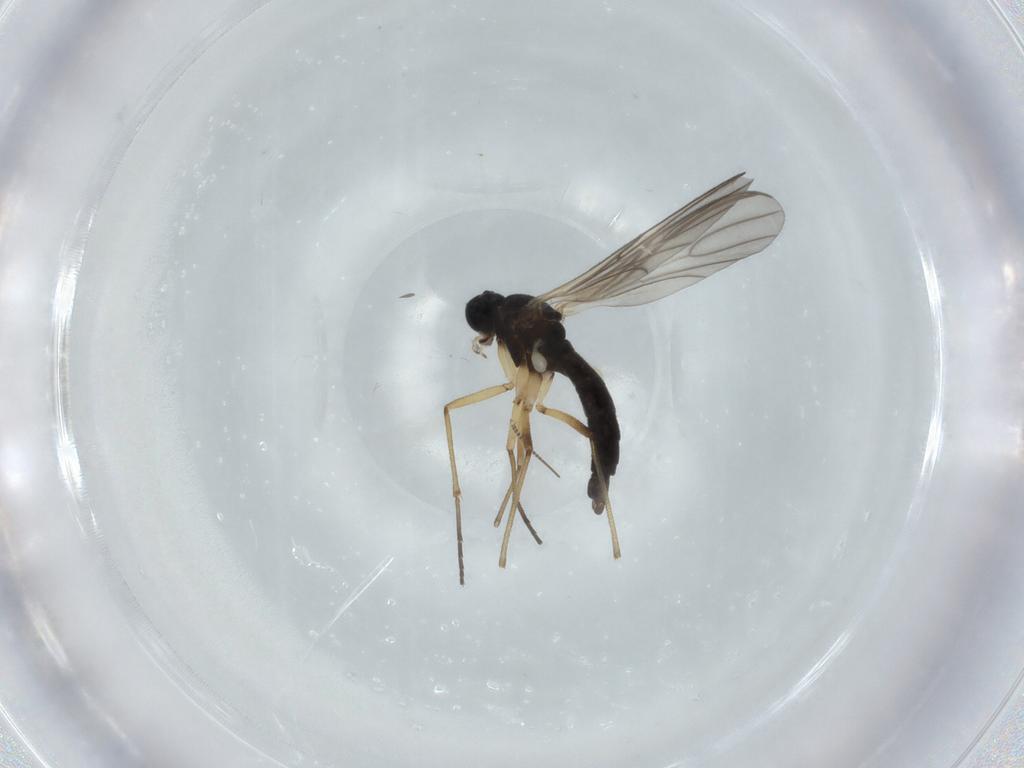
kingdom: Animalia
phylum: Arthropoda
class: Insecta
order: Diptera
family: Sciaridae
